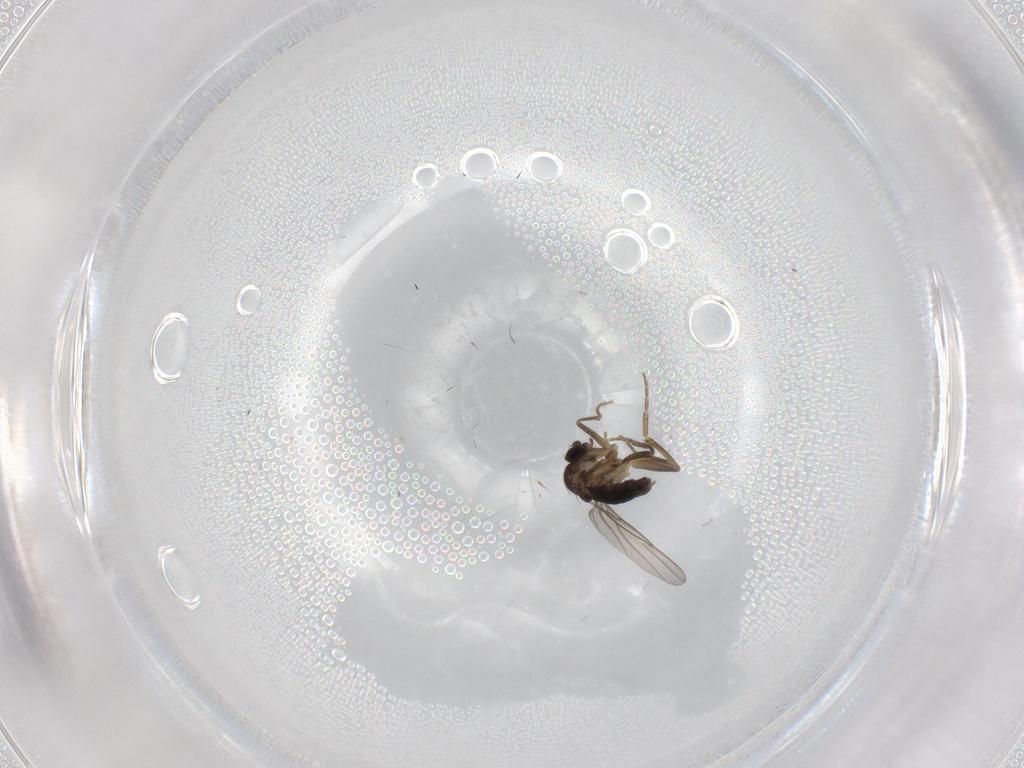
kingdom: Animalia
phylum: Arthropoda
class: Insecta
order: Diptera
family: Phoridae
